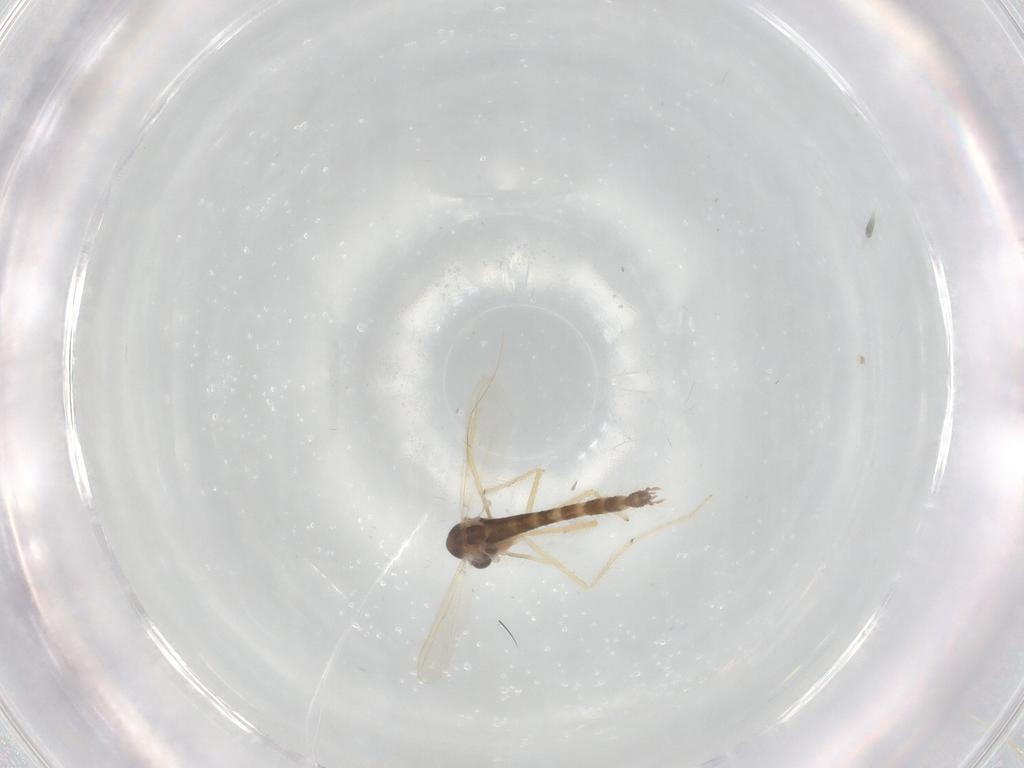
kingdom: Animalia
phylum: Arthropoda
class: Insecta
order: Diptera
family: Chironomidae
